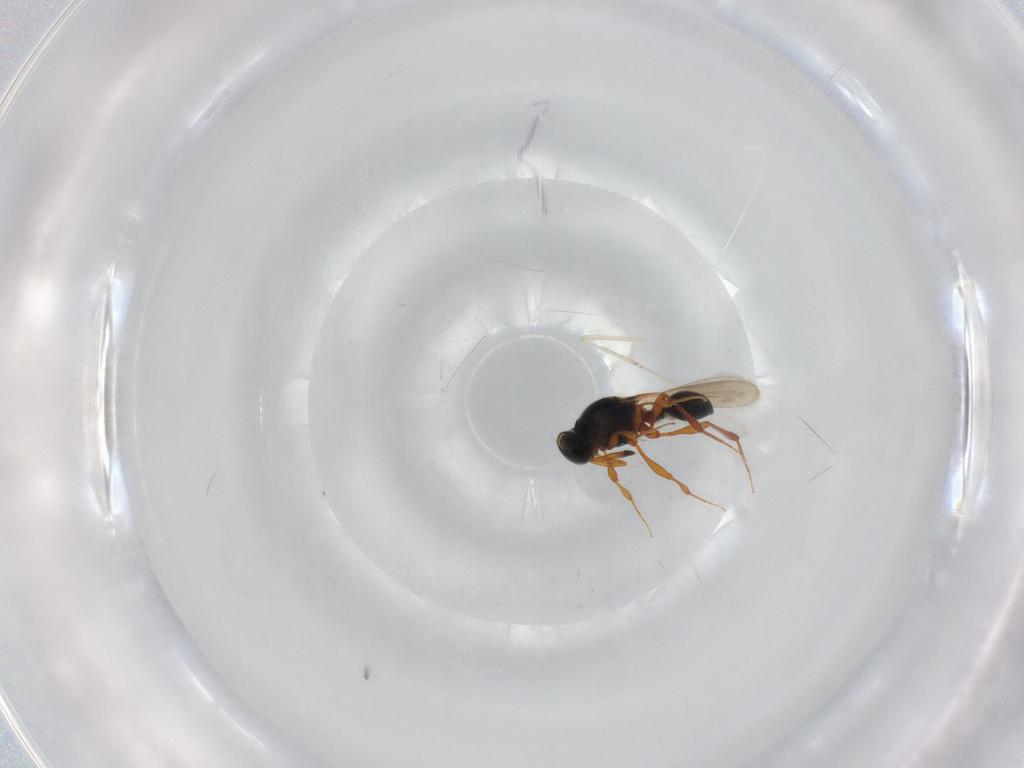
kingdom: Animalia
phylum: Arthropoda
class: Insecta
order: Hymenoptera
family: Platygastridae
